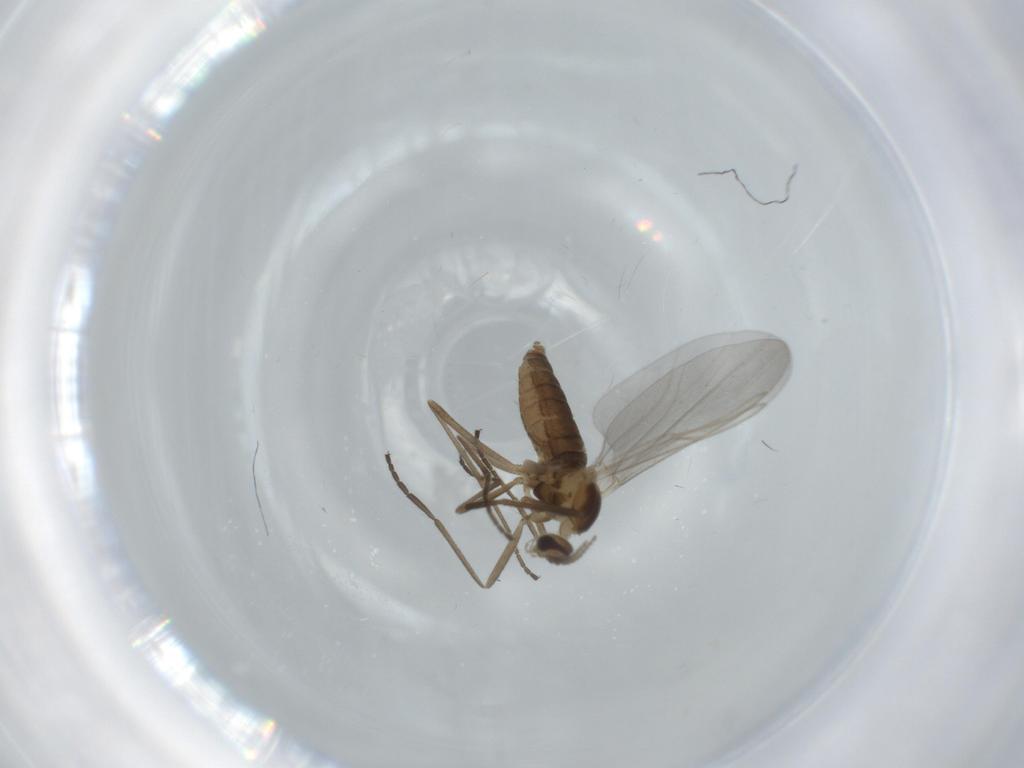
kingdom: Animalia
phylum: Arthropoda
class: Insecta
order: Diptera
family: Cecidomyiidae
